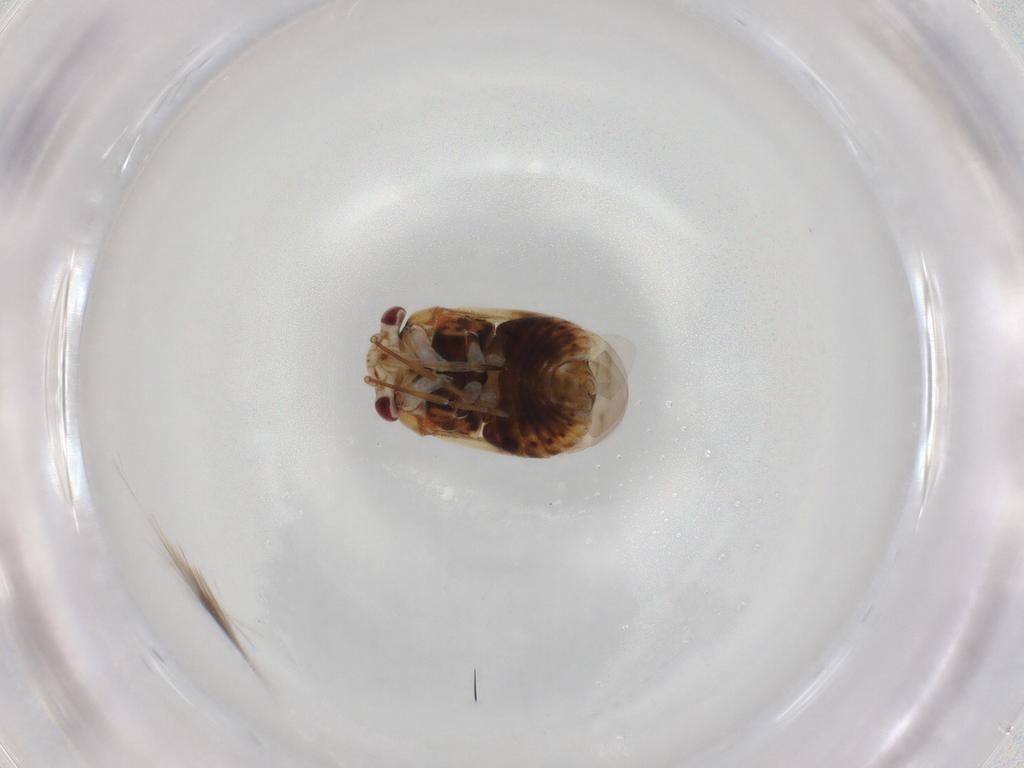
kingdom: Animalia
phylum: Arthropoda
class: Insecta
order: Hemiptera
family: Miridae
